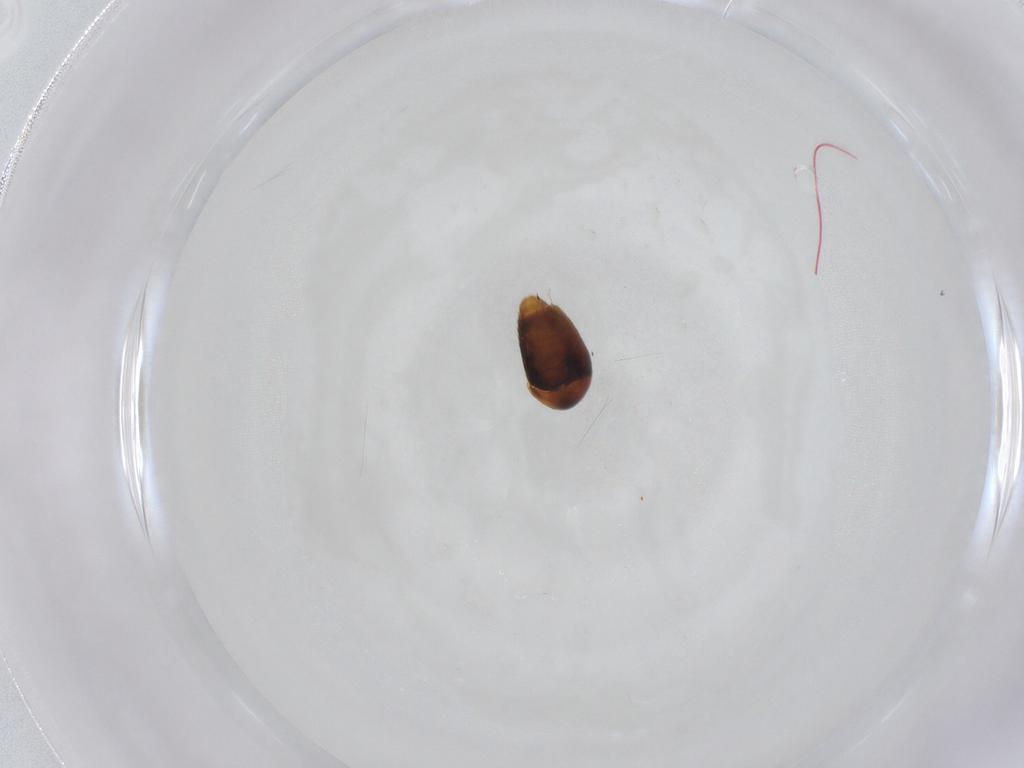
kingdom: Animalia
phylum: Arthropoda
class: Insecta
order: Coleoptera
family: Corylophidae
